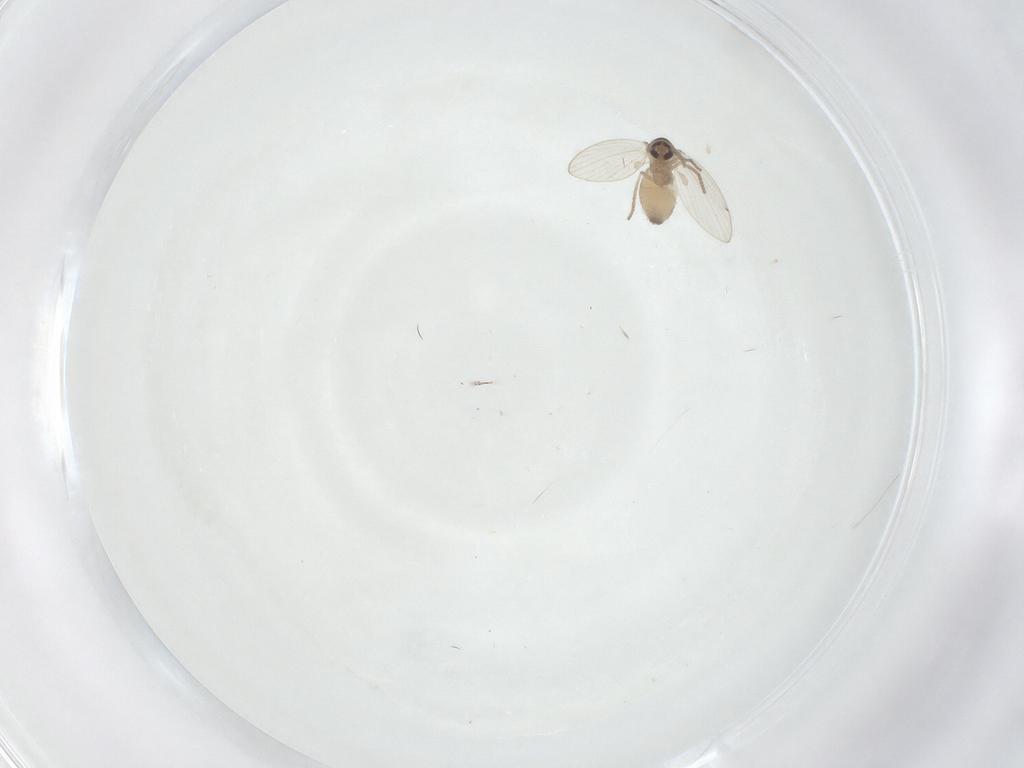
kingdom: Animalia
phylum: Arthropoda
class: Insecta
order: Diptera
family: Psychodidae
